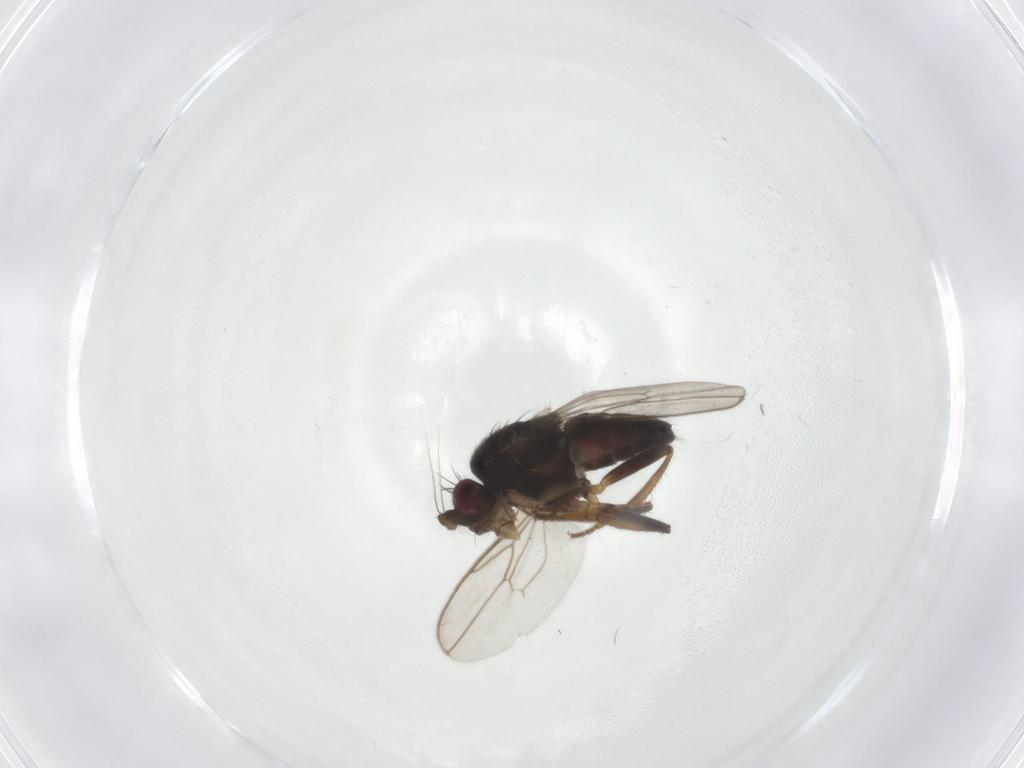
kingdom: Animalia
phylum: Arthropoda
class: Insecta
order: Diptera
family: Sphaeroceridae
